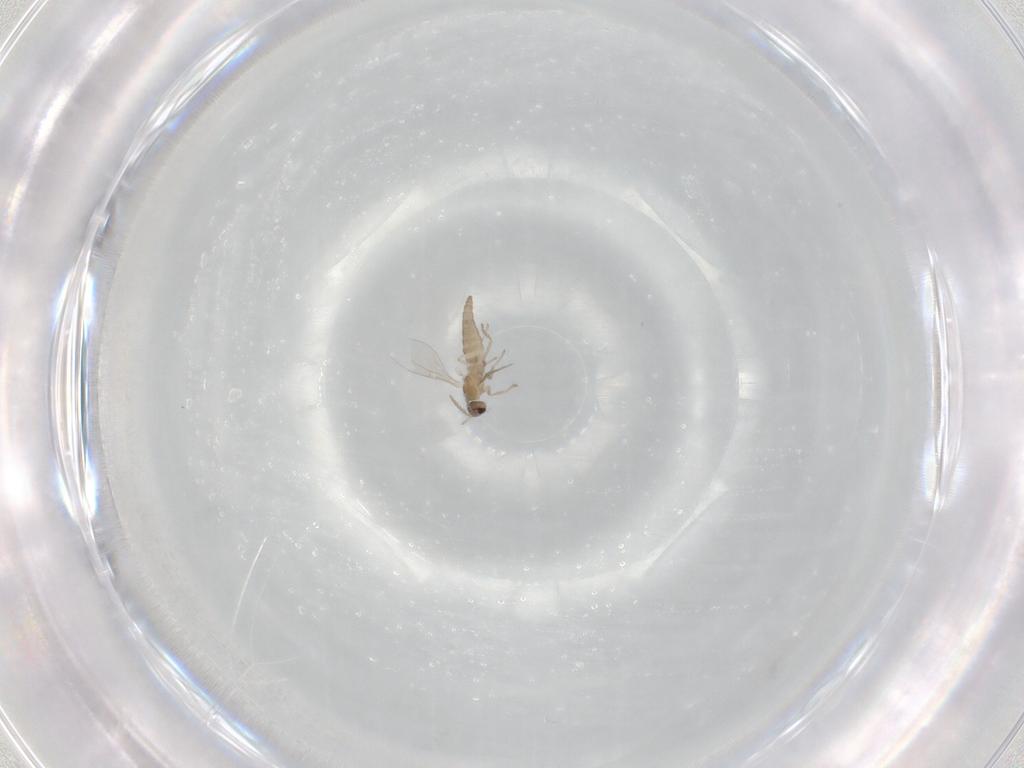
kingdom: Animalia
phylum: Arthropoda
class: Insecta
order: Diptera
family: Cecidomyiidae
